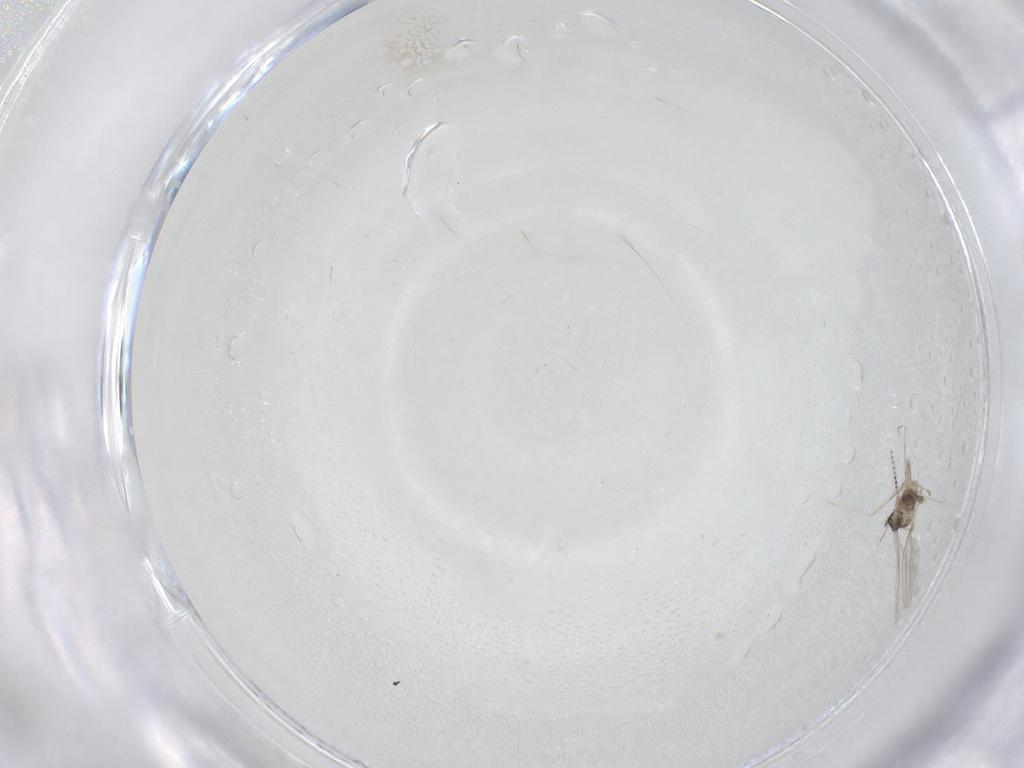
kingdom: Animalia
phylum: Arthropoda
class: Insecta
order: Diptera
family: Cecidomyiidae
